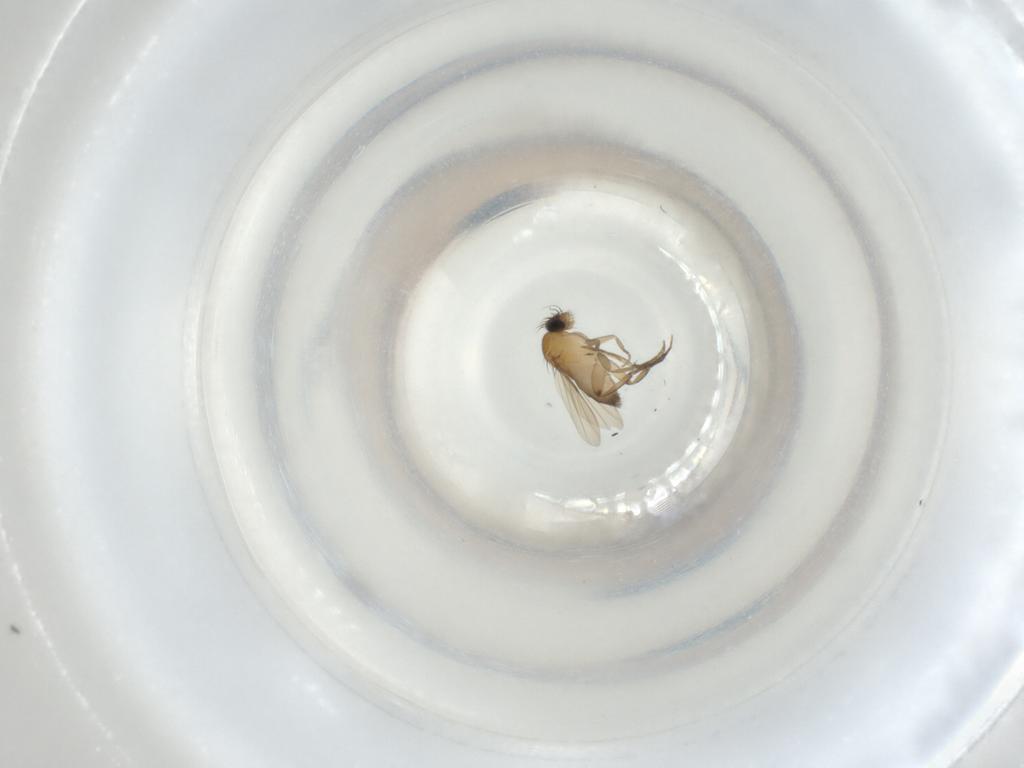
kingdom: Animalia
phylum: Arthropoda
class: Insecta
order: Diptera
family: Phoridae
